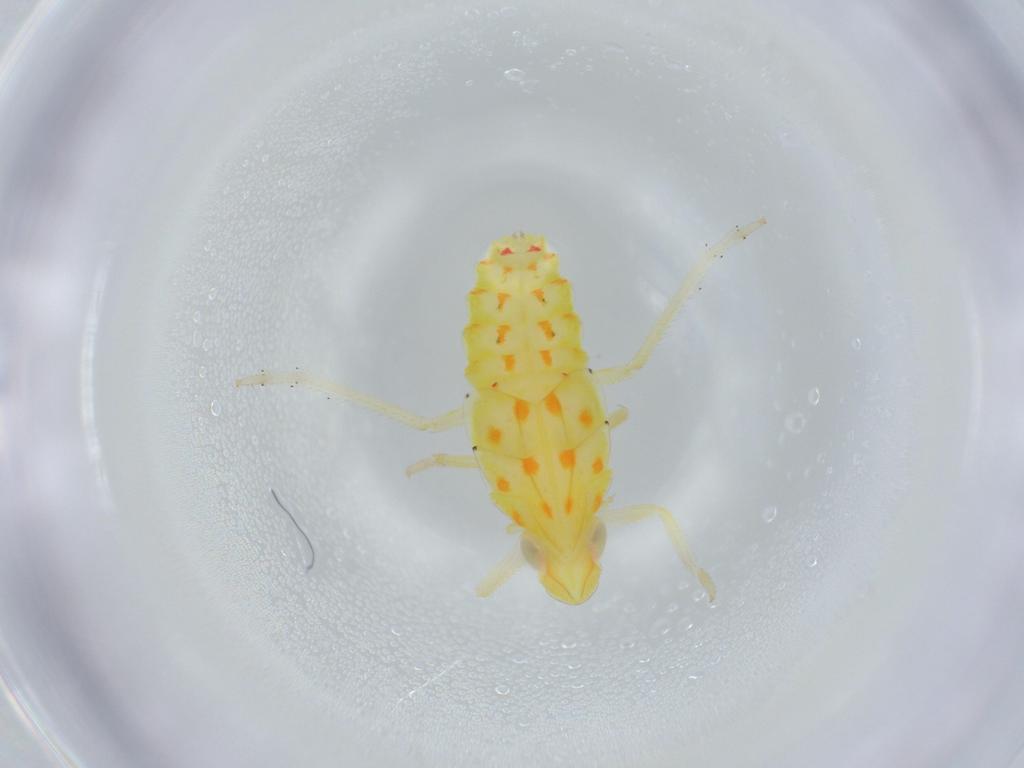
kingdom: Animalia
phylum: Arthropoda
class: Insecta
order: Hemiptera
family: Tropiduchidae
